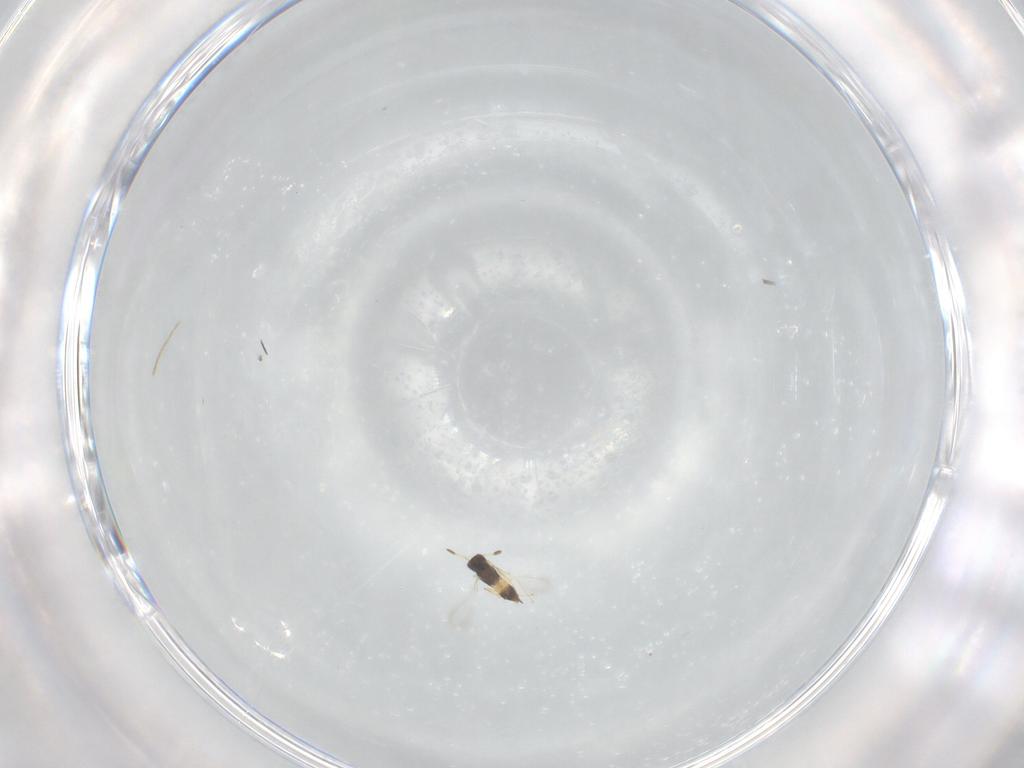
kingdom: Animalia
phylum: Arthropoda
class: Insecta
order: Hymenoptera
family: Mymaridae
